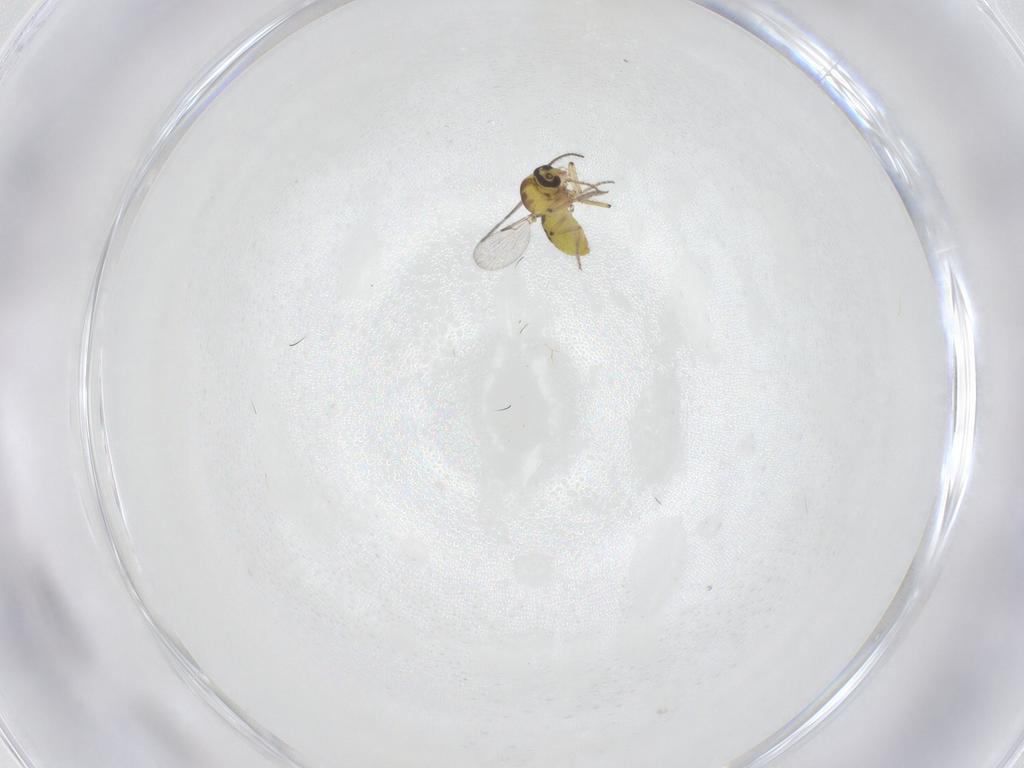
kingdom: Animalia
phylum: Arthropoda
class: Insecta
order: Diptera
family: Ceratopogonidae
